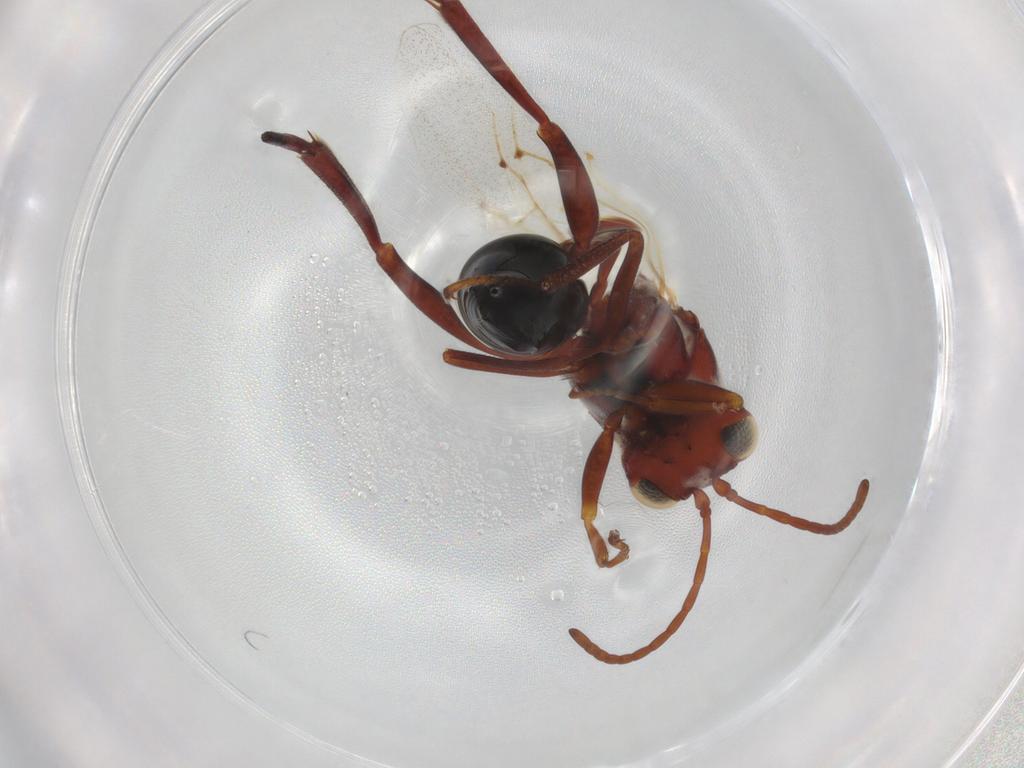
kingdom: Animalia
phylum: Arthropoda
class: Insecta
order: Hymenoptera
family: Figitidae
